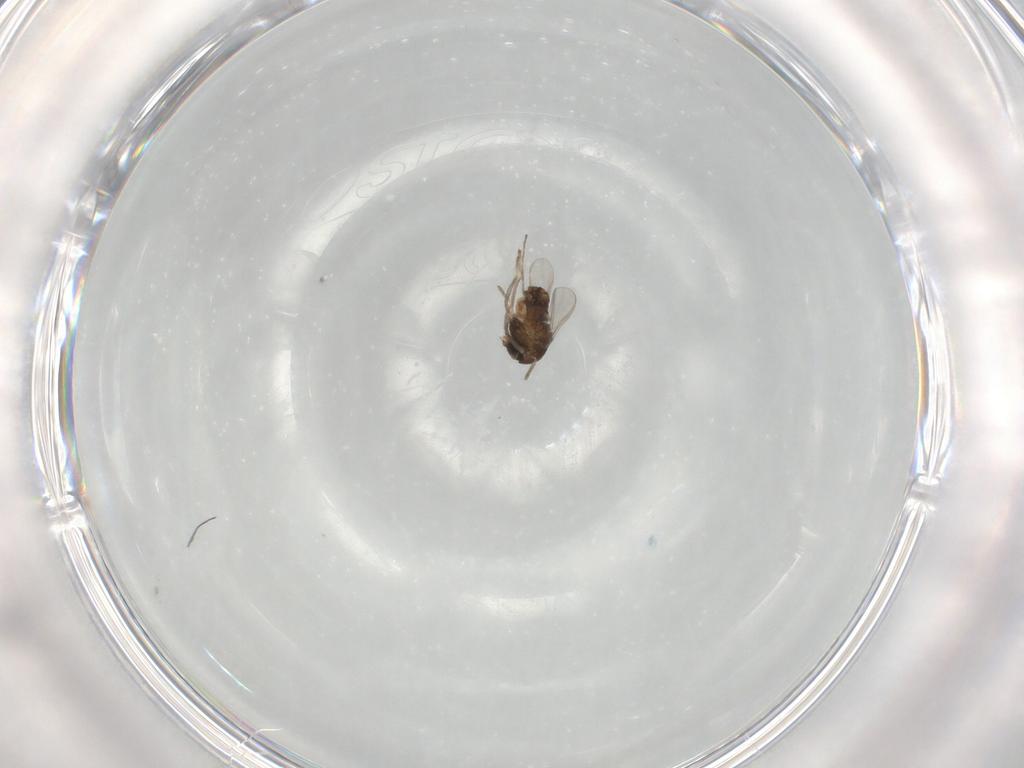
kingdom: Animalia
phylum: Arthropoda
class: Insecta
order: Diptera
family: Chironomidae
